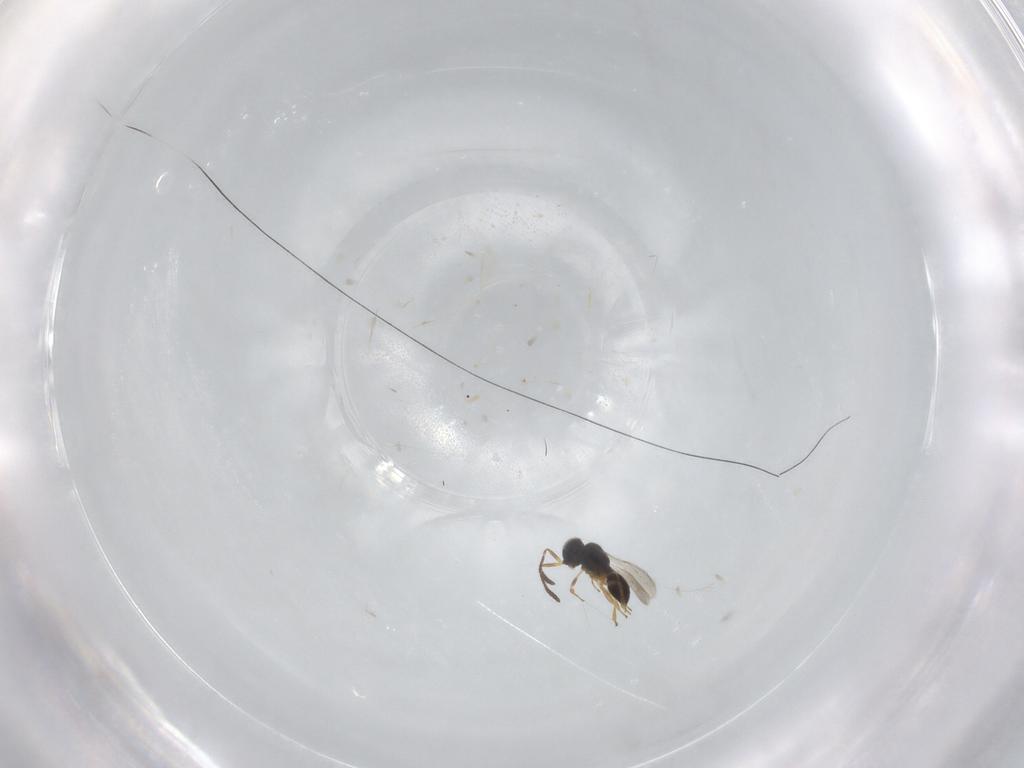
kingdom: Animalia
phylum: Arthropoda
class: Insecta
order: Hymenoptera
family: Scelionidae
